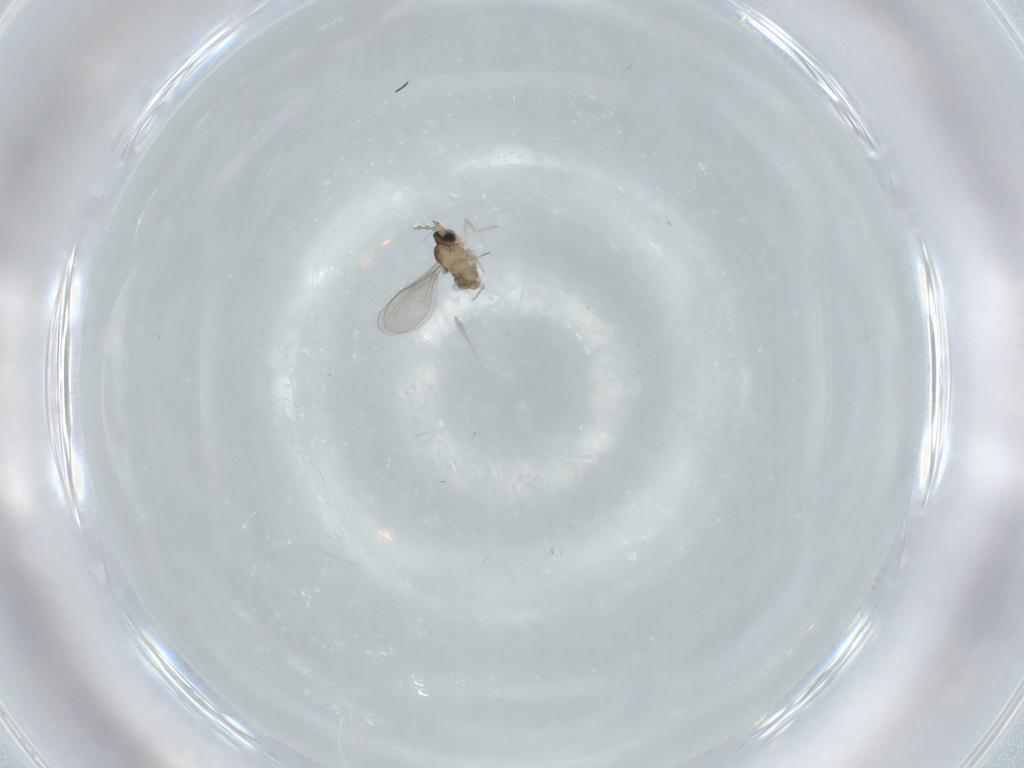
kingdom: Animalia
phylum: Arthropoda
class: Insecta
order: Diptera
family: Cecidomyiidae
